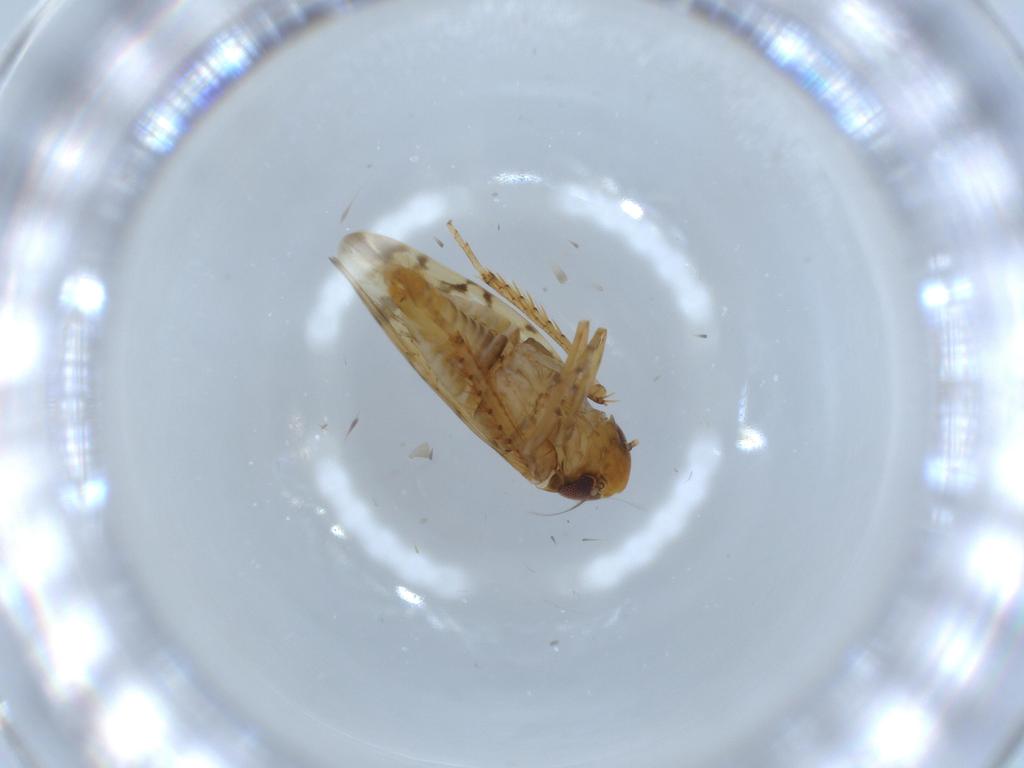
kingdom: Animalia
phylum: Arthropoda
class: Insecta
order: Hemiptera
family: Cicadellidae
